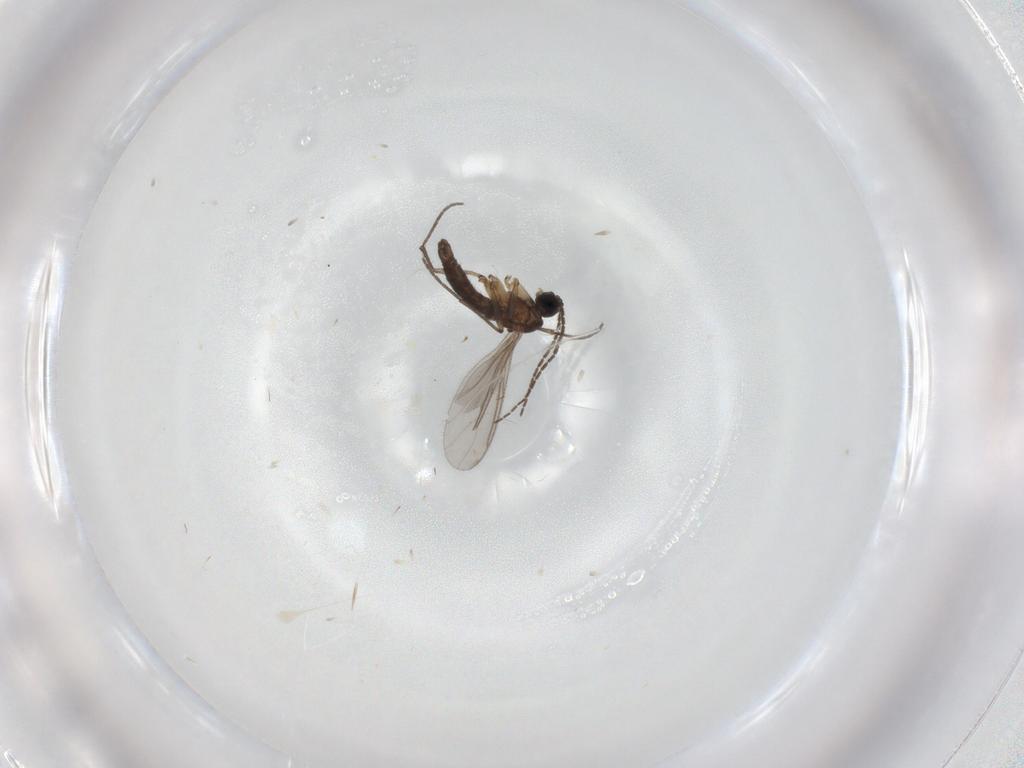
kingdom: Animalia
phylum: Arthropoda
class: Insecta
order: Diptera
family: Sciaridae
